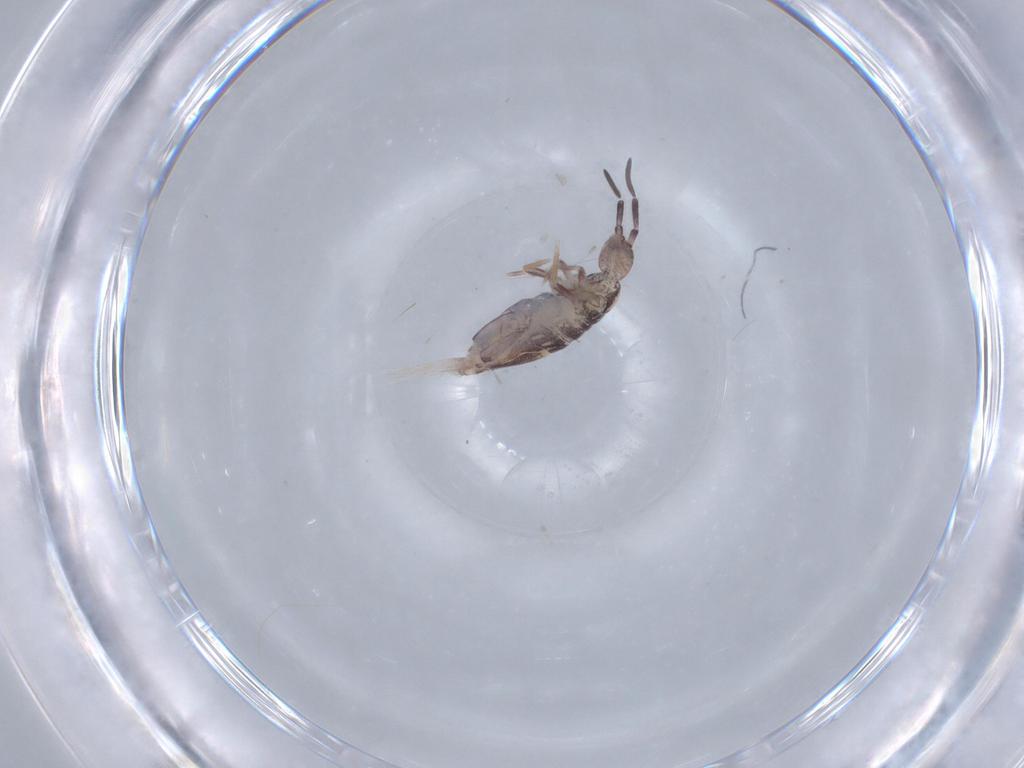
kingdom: Animalia
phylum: Arthropoda
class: Collembola
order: Poduromorpha
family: Hypogastruridae
